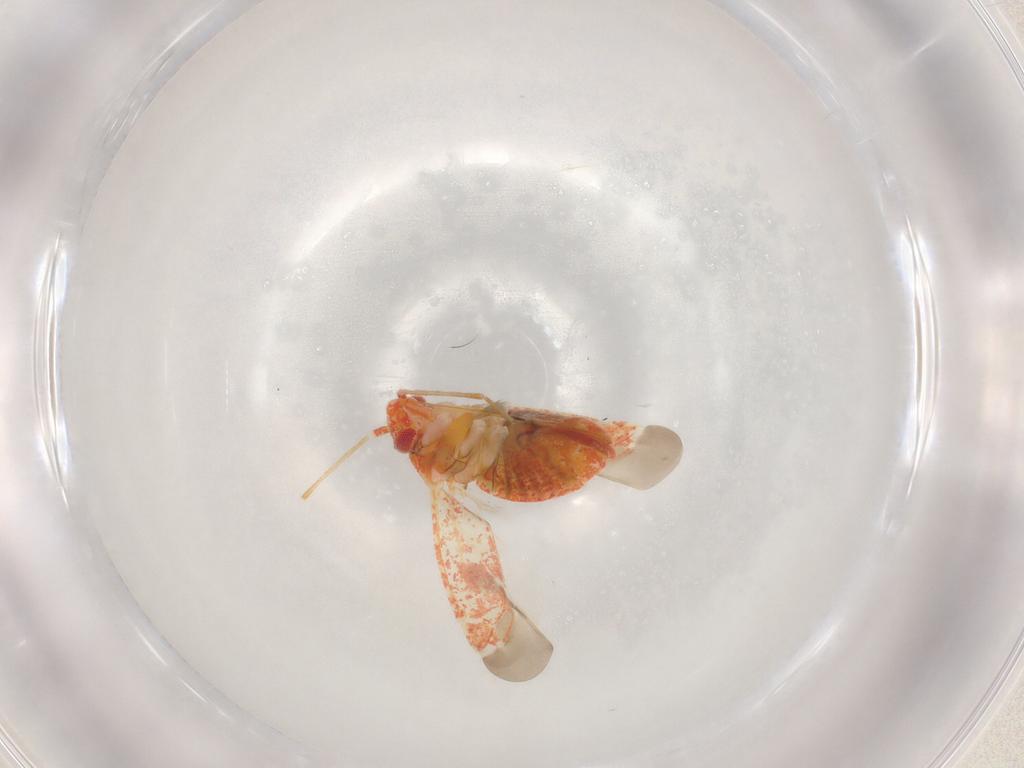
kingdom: Animalia
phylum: Arthropoda
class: Insecta
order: Hemiptera
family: Miridae
